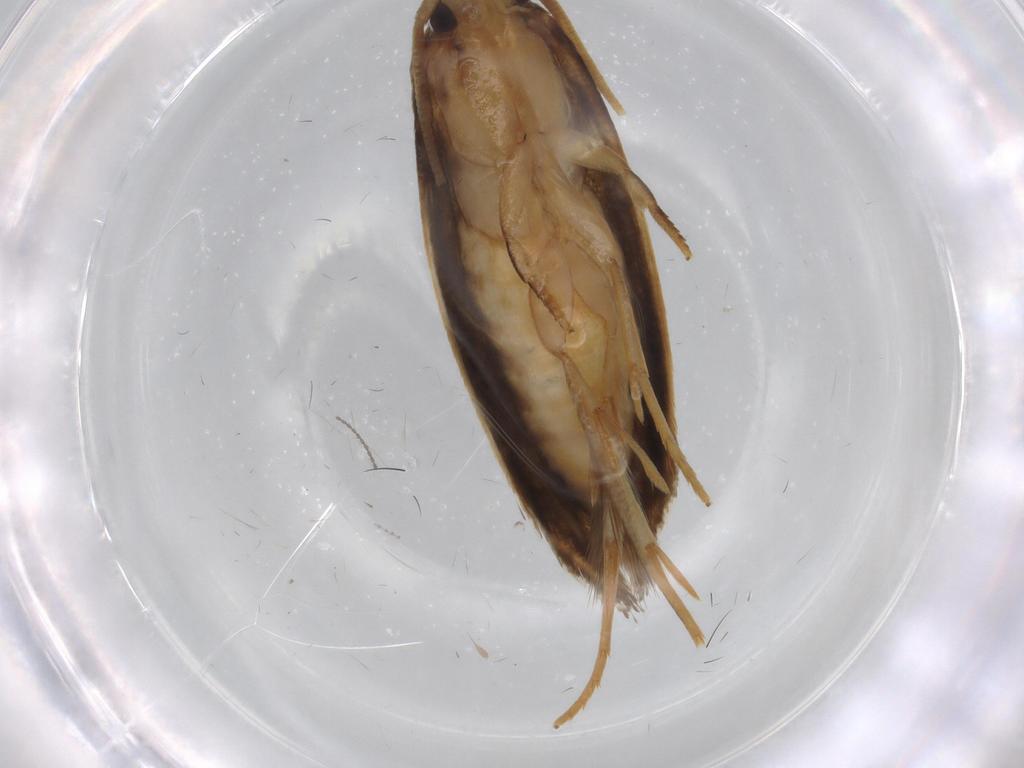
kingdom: Animalia
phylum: Arthropoda
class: Insecta
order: Lepidoptera
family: Tineidae
